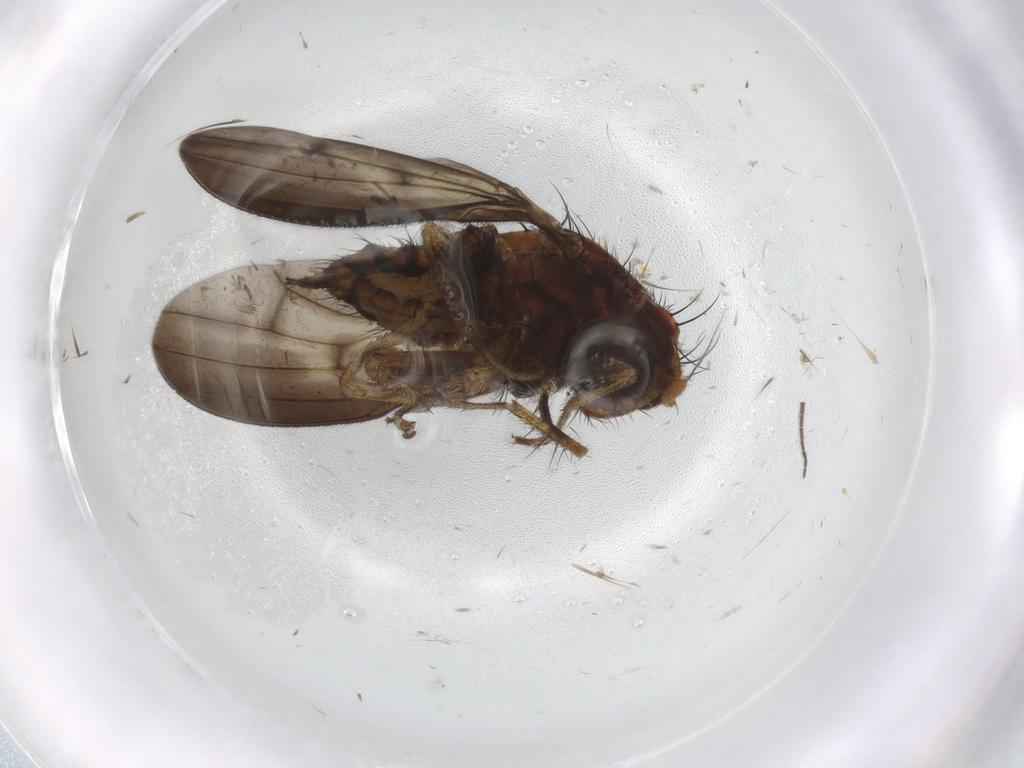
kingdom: Animalia
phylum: Arthropoda
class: Insecta
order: Diptera
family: Lauxaniidae
